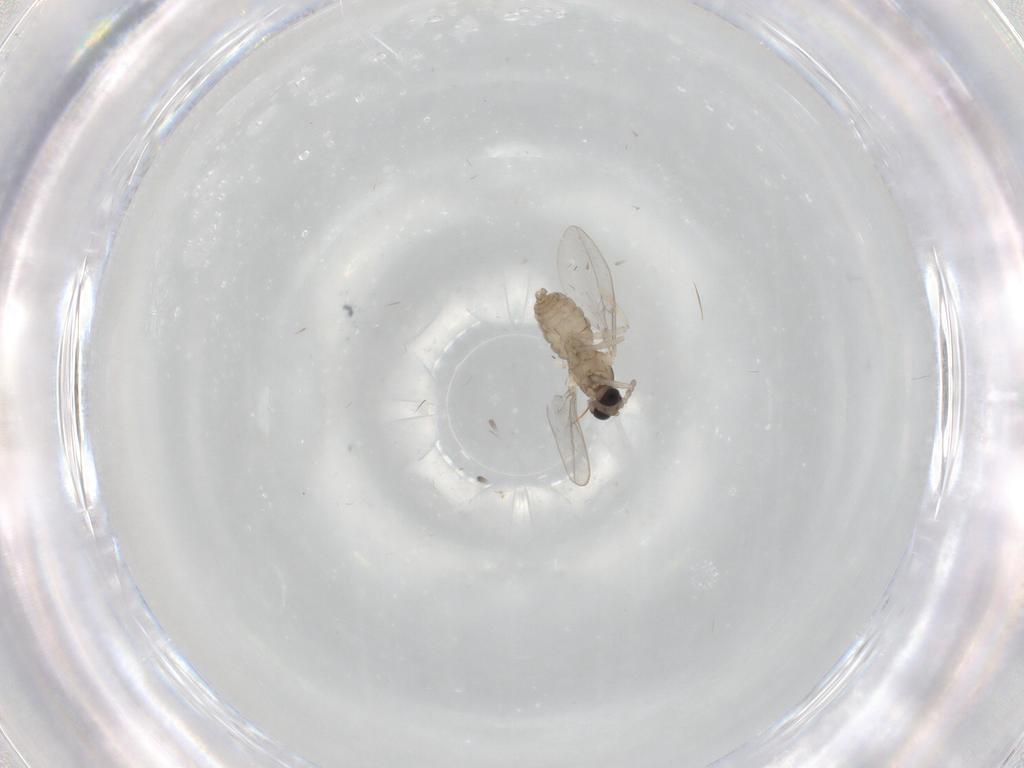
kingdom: Animalia
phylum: Arthropoda
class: Insecta
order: Diptera
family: Cecidomyiidae
